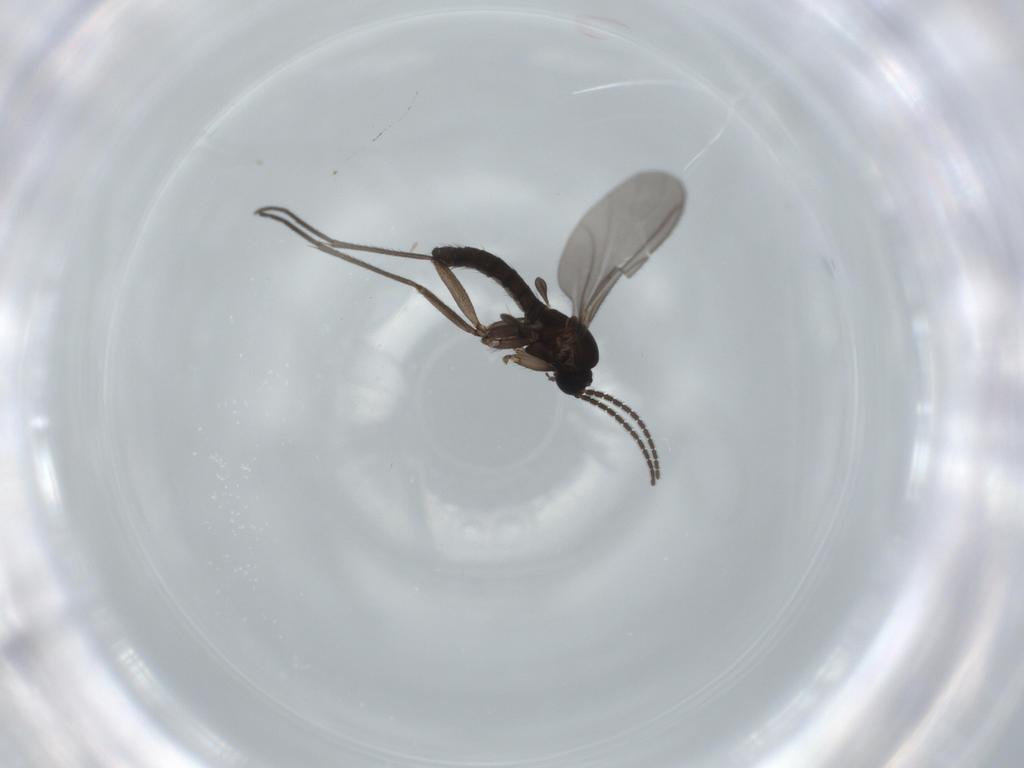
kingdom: Animalia
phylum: Arthropoda
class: Insecta
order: Diptera
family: Sciaridae
